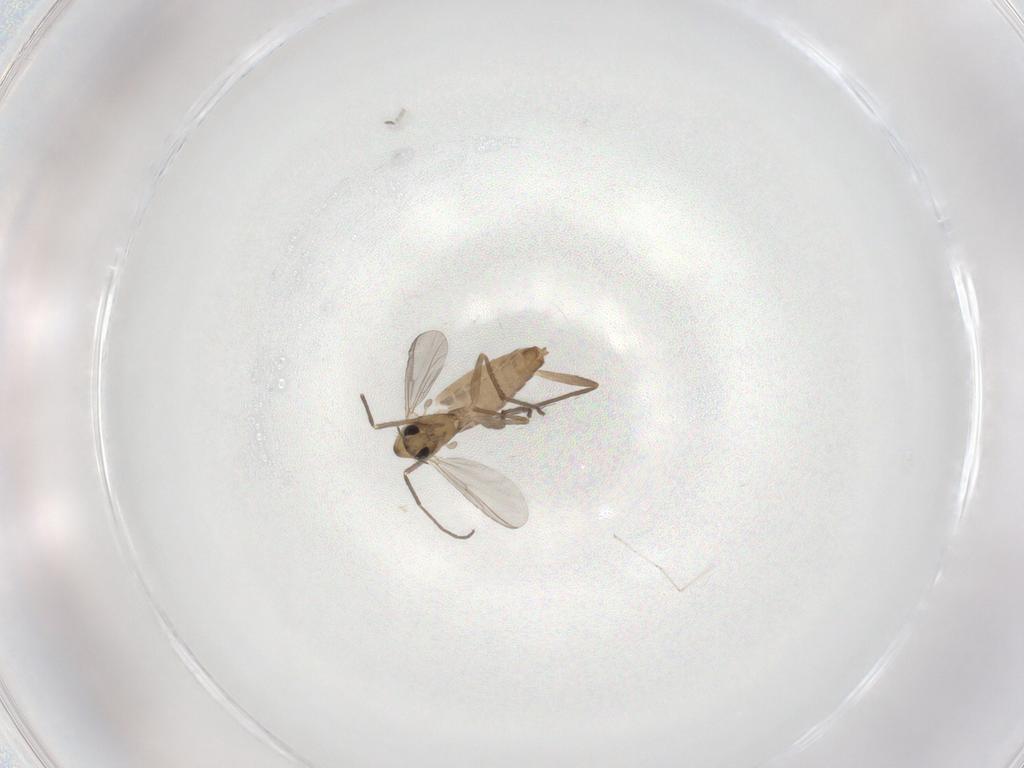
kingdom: Animalia
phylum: Arthropoda
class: Insecta
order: Diptera
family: Chironomidae
